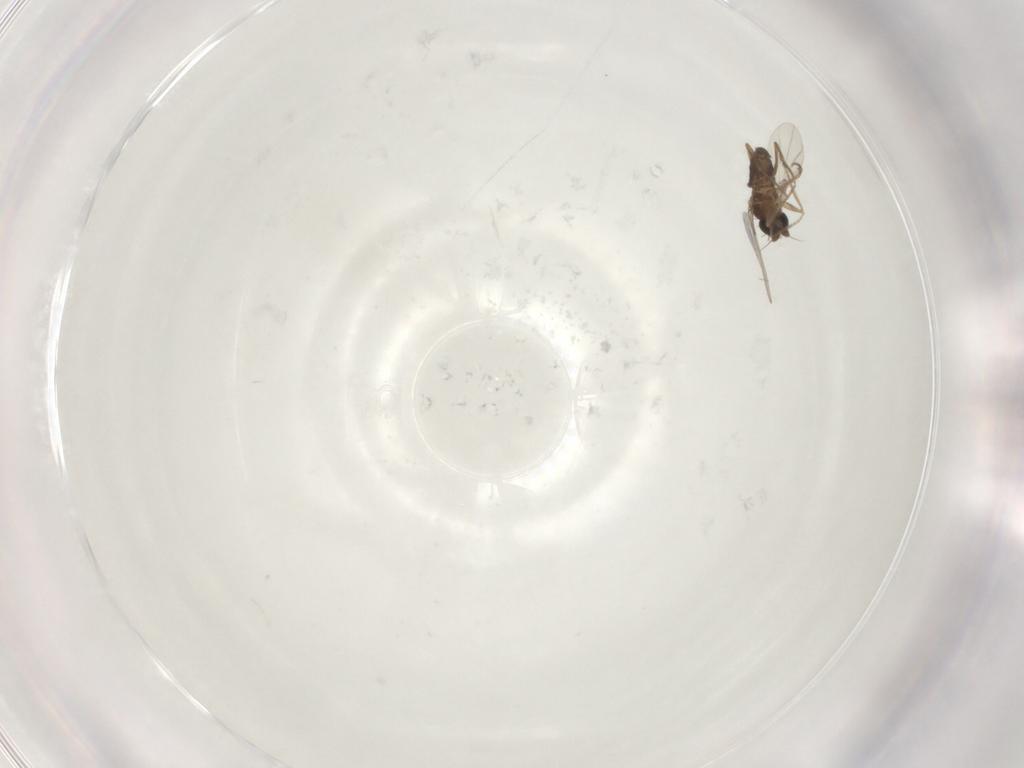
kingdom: Animalia
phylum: Arthropoda
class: Insecta
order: Diptera
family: Phoridae
